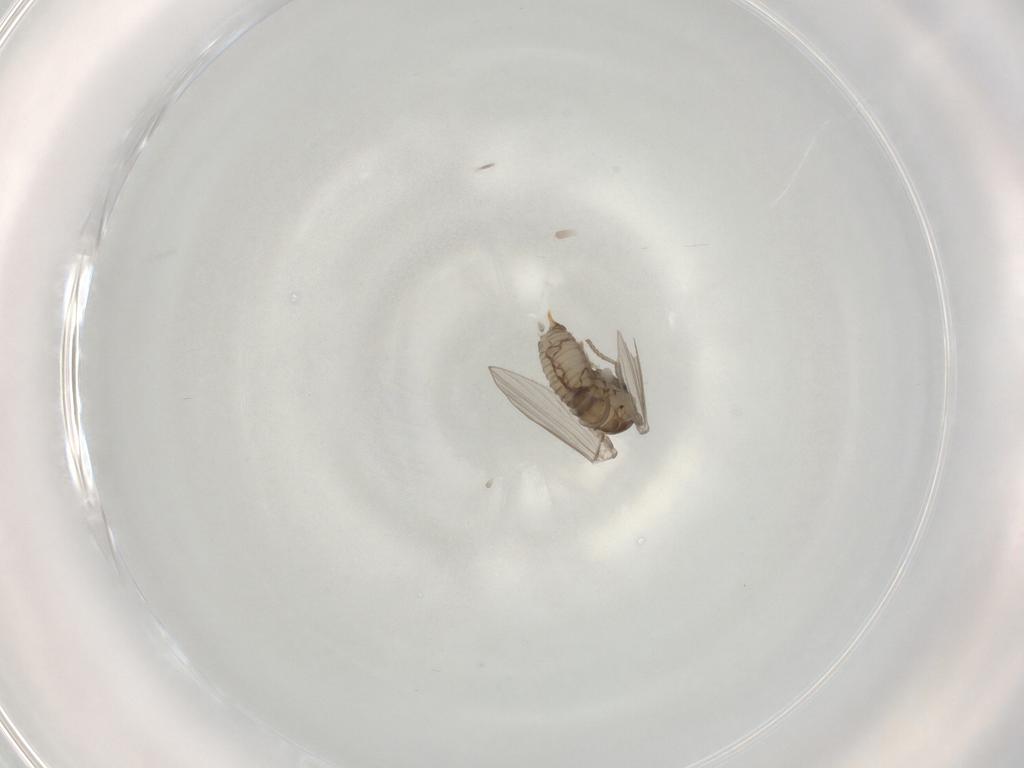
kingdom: Animalia
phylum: Arthropoda
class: Insecta
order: Diptera
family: Psychodidae
